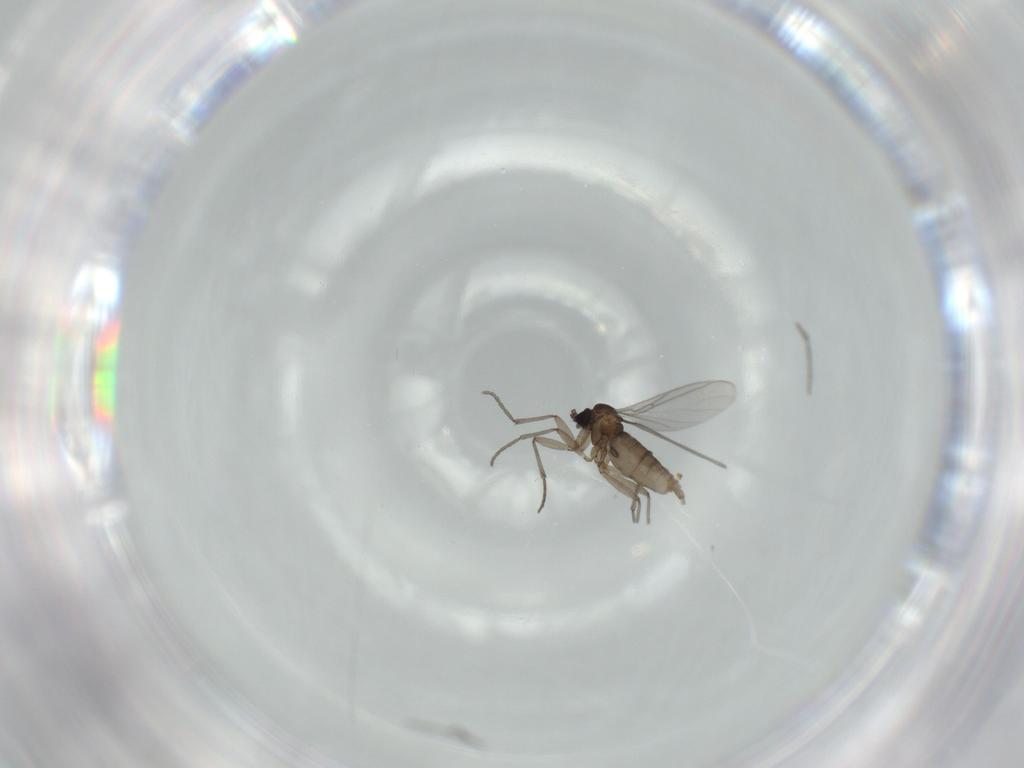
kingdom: Animalia
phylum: Arthropoda
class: Insecta
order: Diptera
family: Sciaridae
